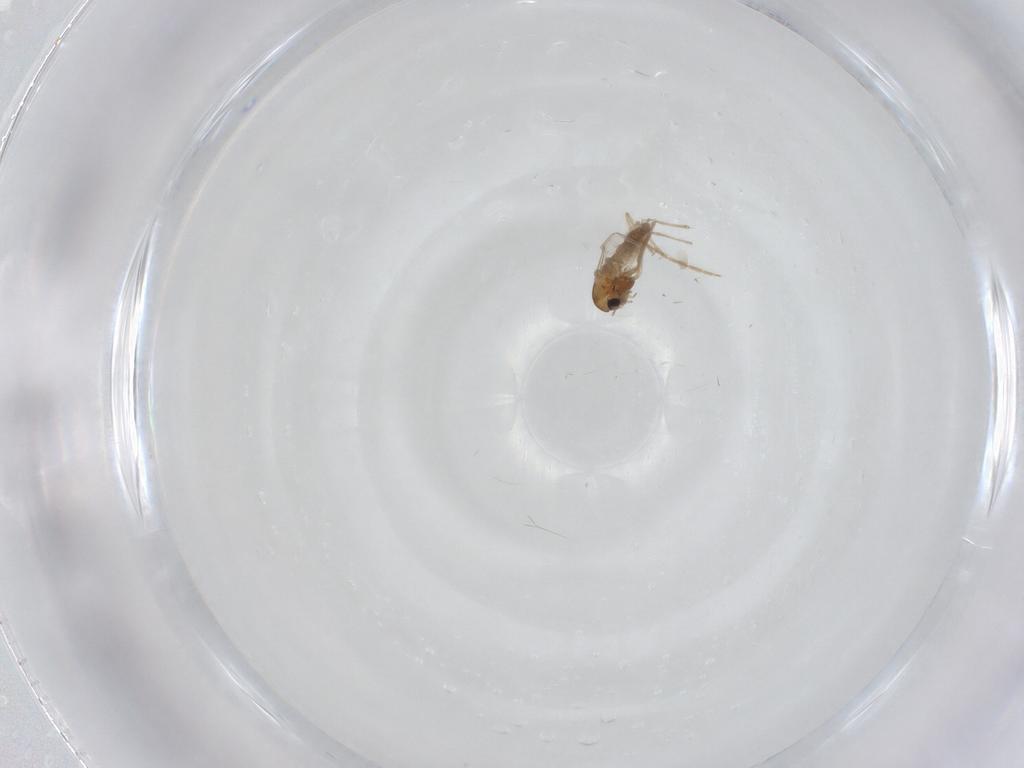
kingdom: Animalia
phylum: Arthropoda
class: Insecta
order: Diptera
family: Chironomidae
